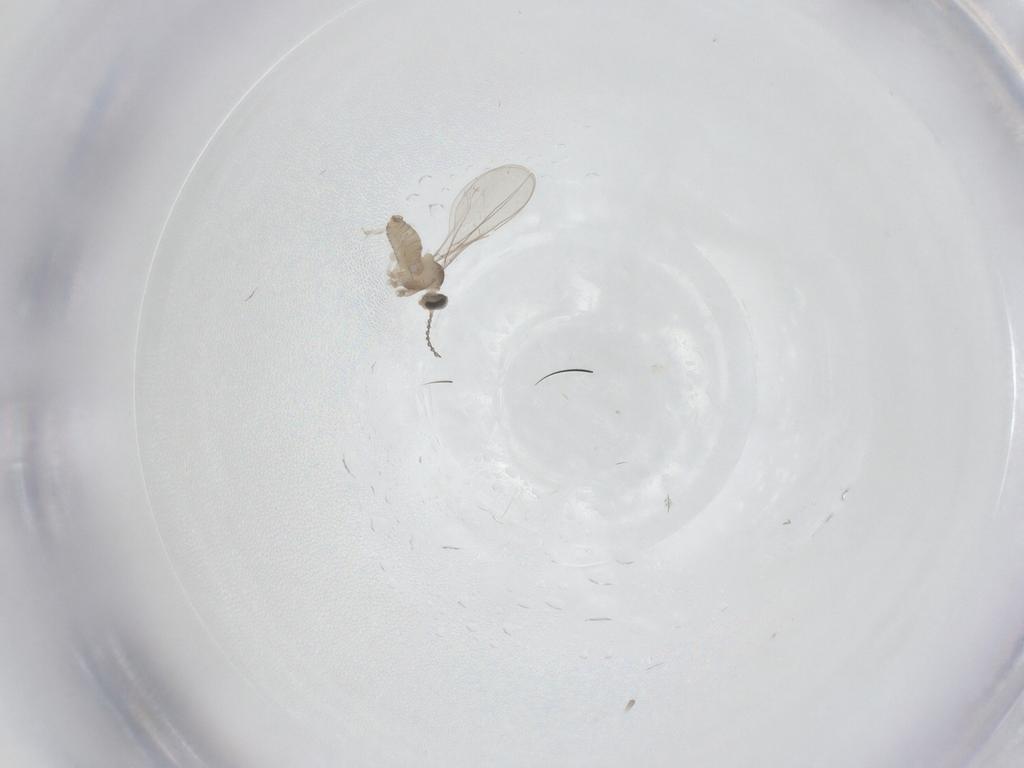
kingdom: Animalia
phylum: Arthropoda
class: Insecta
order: Diptera
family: Cecidomyiidae
